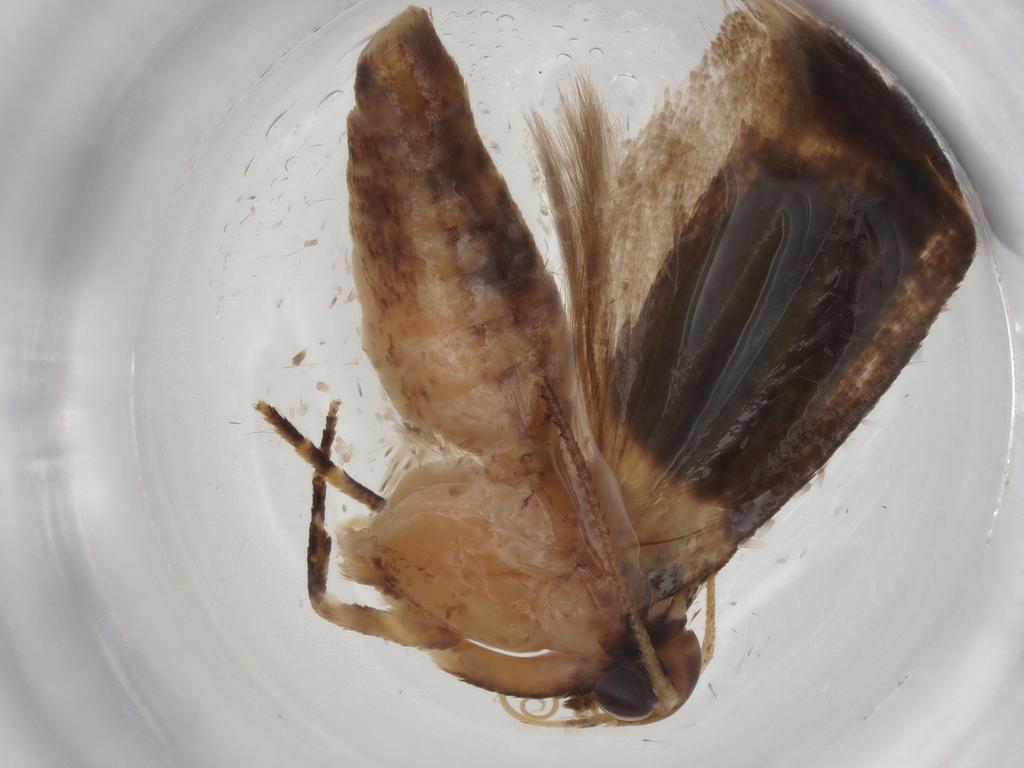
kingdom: Animalia
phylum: Arthropoda
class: Insecta
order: Lepidoptera
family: Gelechiidae
